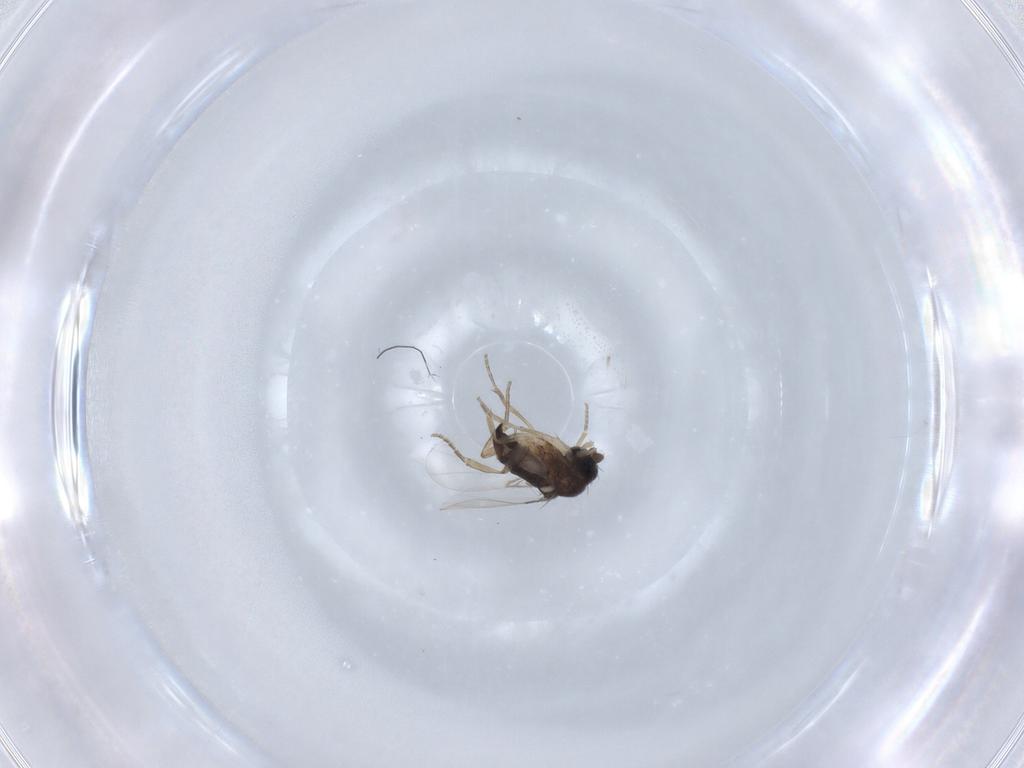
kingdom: Animalia
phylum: Arthropoda
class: Insecta
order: Diptera
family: Phoridae
